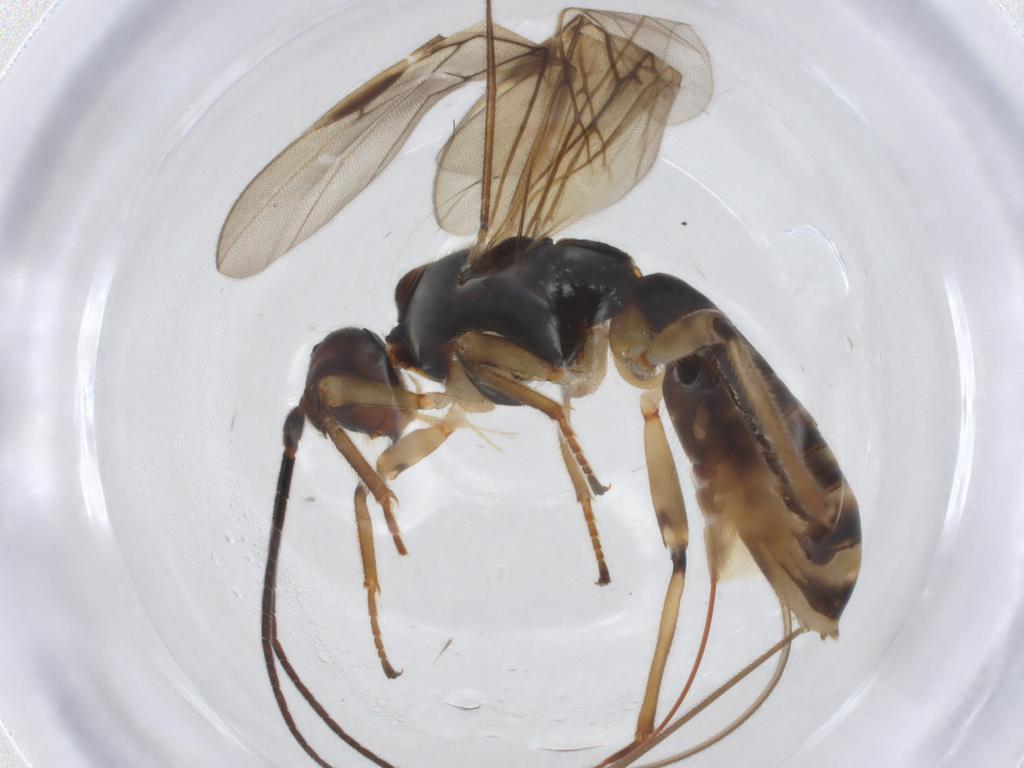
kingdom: Animalia
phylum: Arthropoda
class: Insecta
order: Hymenoptera
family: Braconidae
